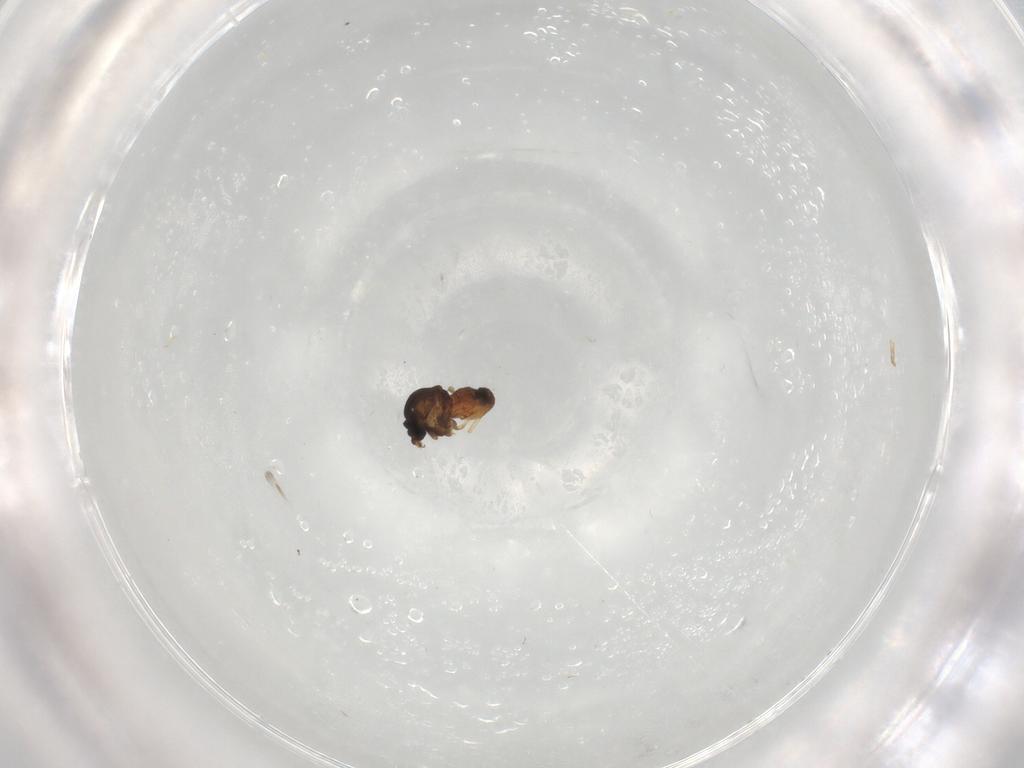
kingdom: Animalia
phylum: Arthropoda
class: Insecta
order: Diptera
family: Ceratopogonidae
